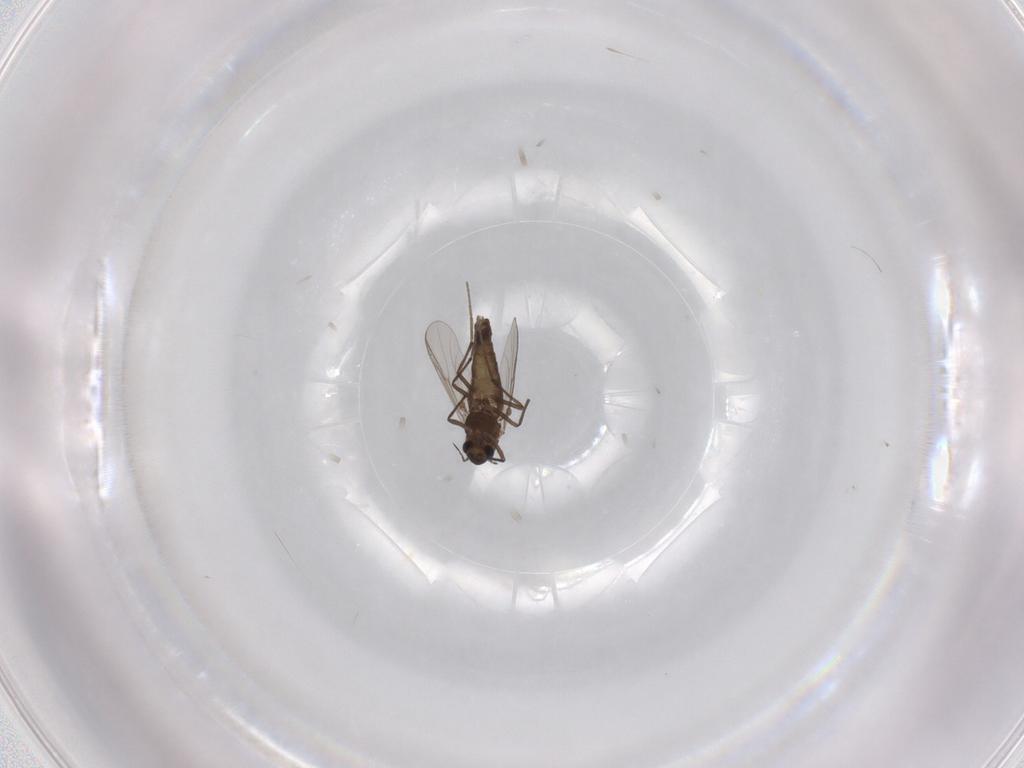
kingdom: Animalia
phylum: Arthropoda
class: Insecta
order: Diptera
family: Chironomidae
